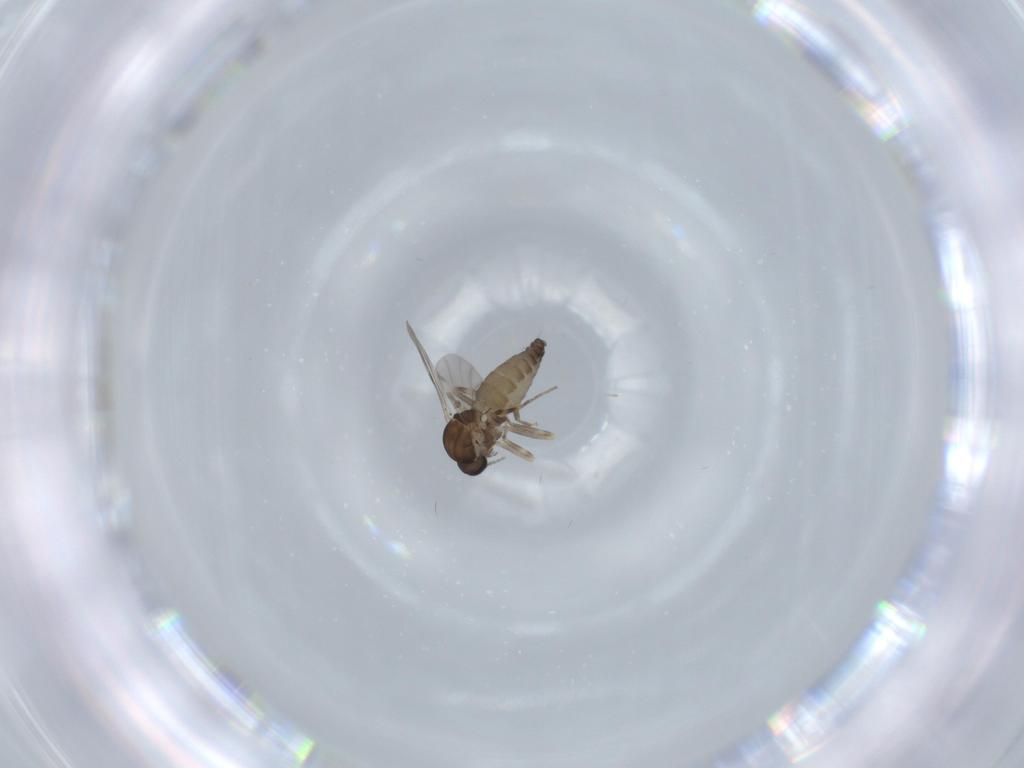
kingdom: Animalia
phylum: Arthropoda
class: Insecta
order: Diptera
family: Ceratopogonidae
